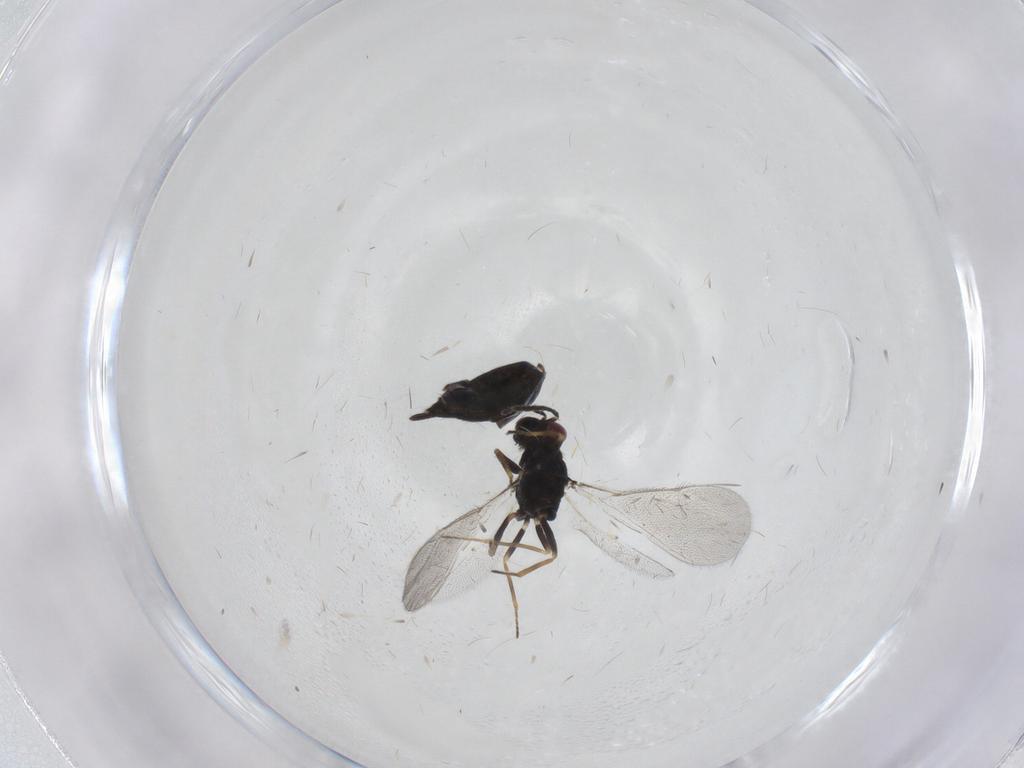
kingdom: Animalia
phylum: Arthropoda
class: Insecta
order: Hymenoptera
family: Eulophidae
